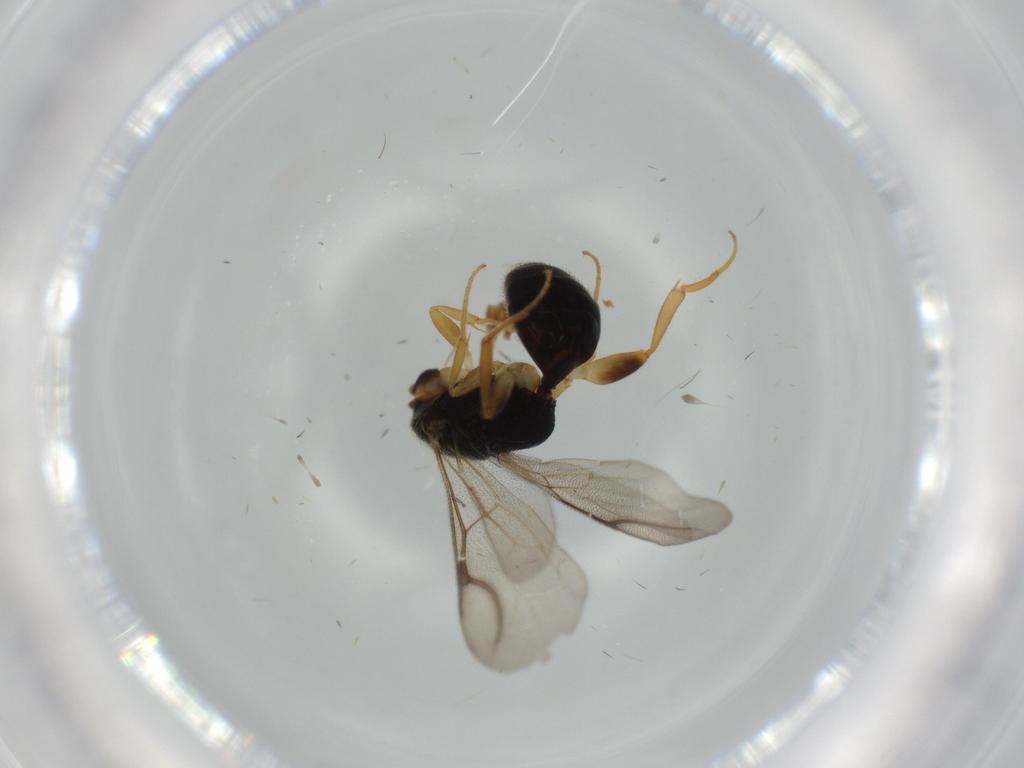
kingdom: Animalia
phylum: Arthropoda
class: Insecta
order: Hymenoptera
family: Bethylidae
